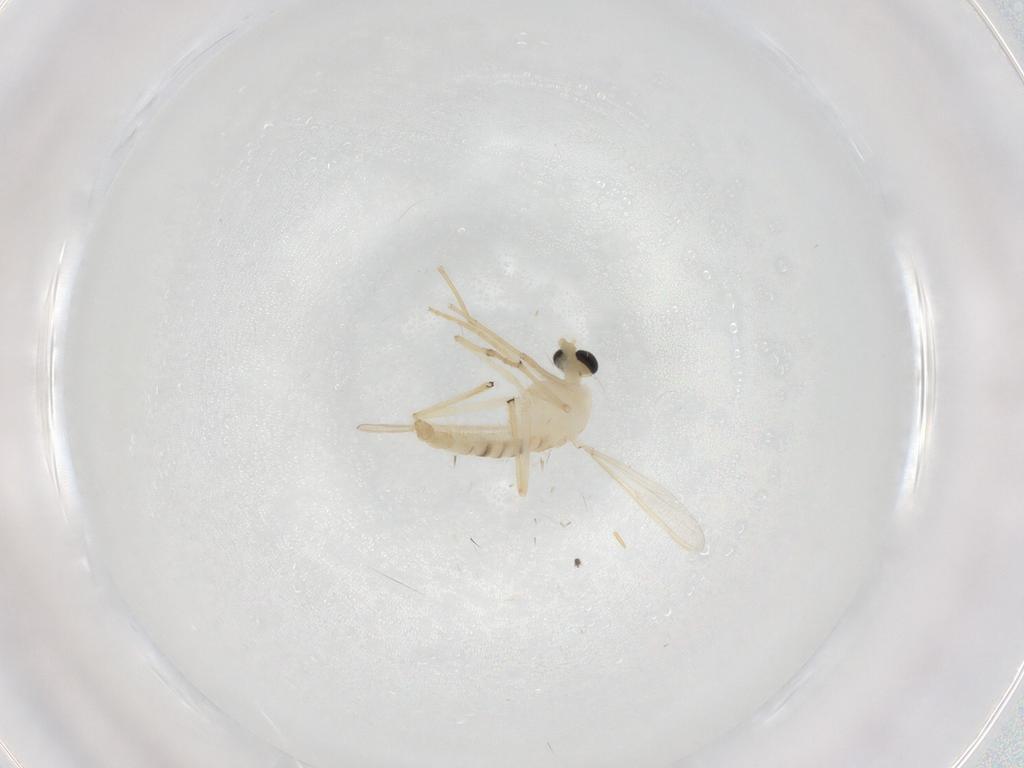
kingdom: Animalia
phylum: Arthropoda
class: Insecta
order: Diptera
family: Chironomidae
